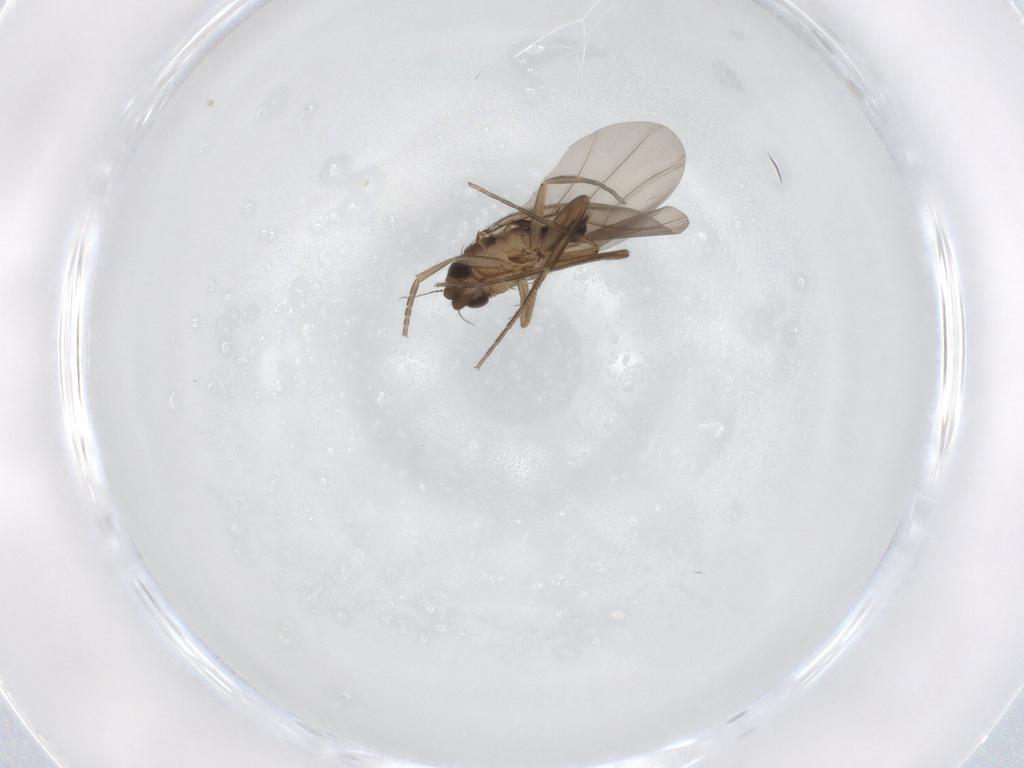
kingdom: Animalia
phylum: Arthropoda
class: Insecta
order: Diptera
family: Phoridae
